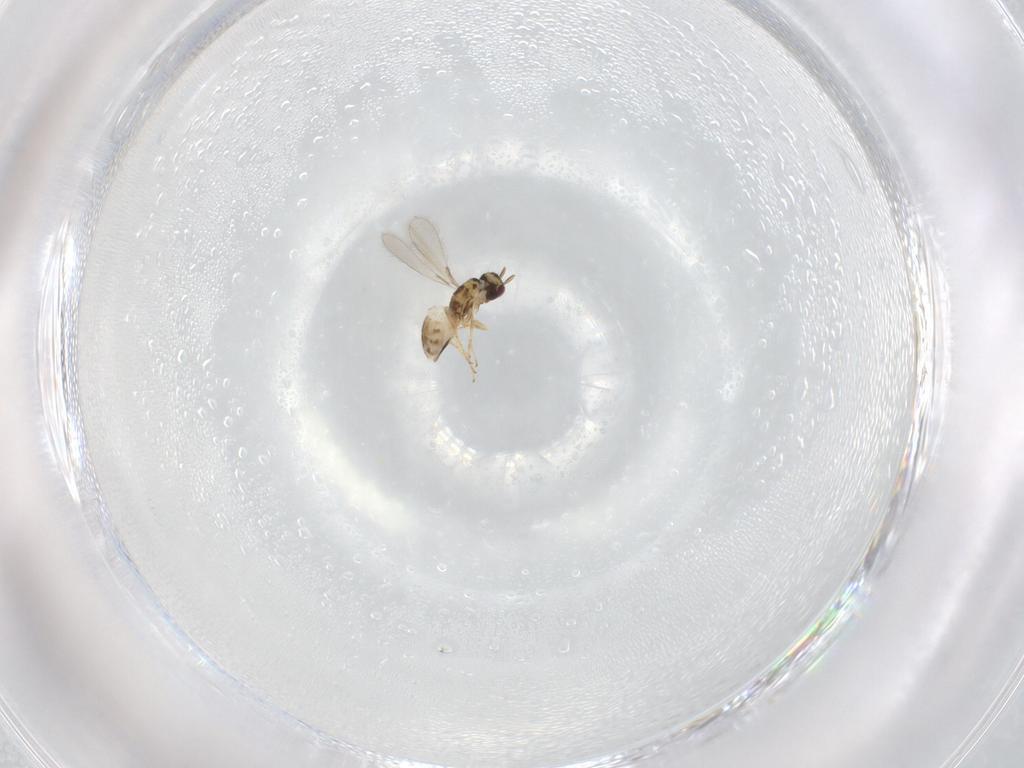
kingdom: Animalia
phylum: Arthropoda
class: Insecta
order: Hymenoptera
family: Mymaridae
